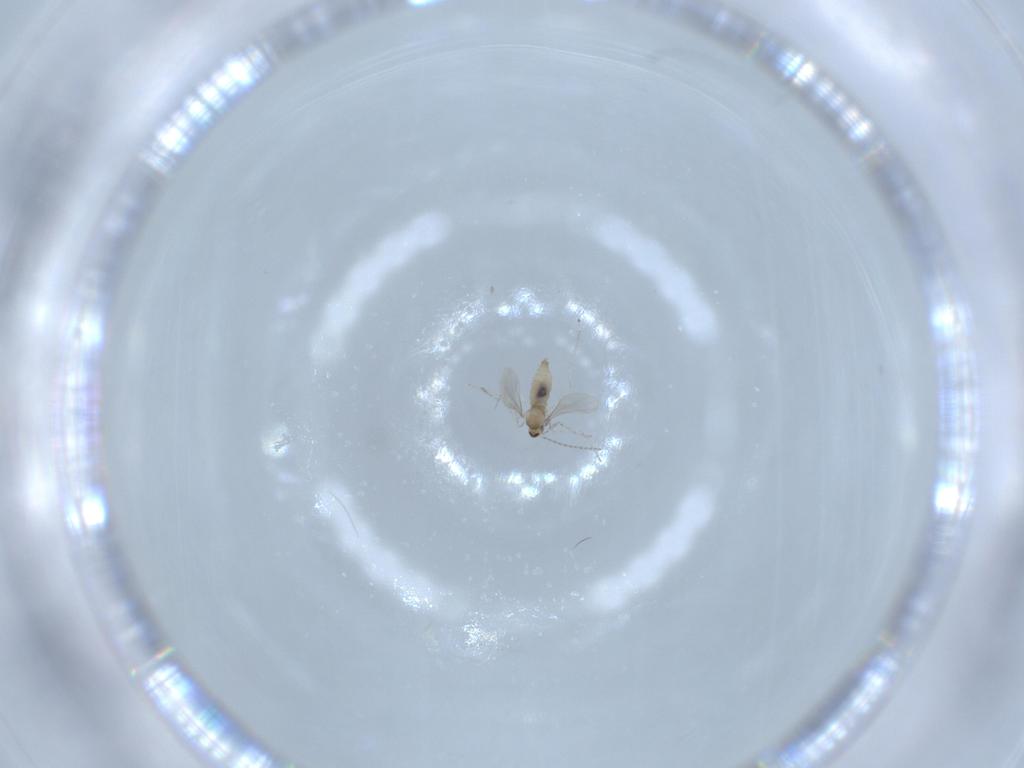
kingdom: Animalia
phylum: Arthropoda
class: Insecta
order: Diptera
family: Cecidomyiidae
